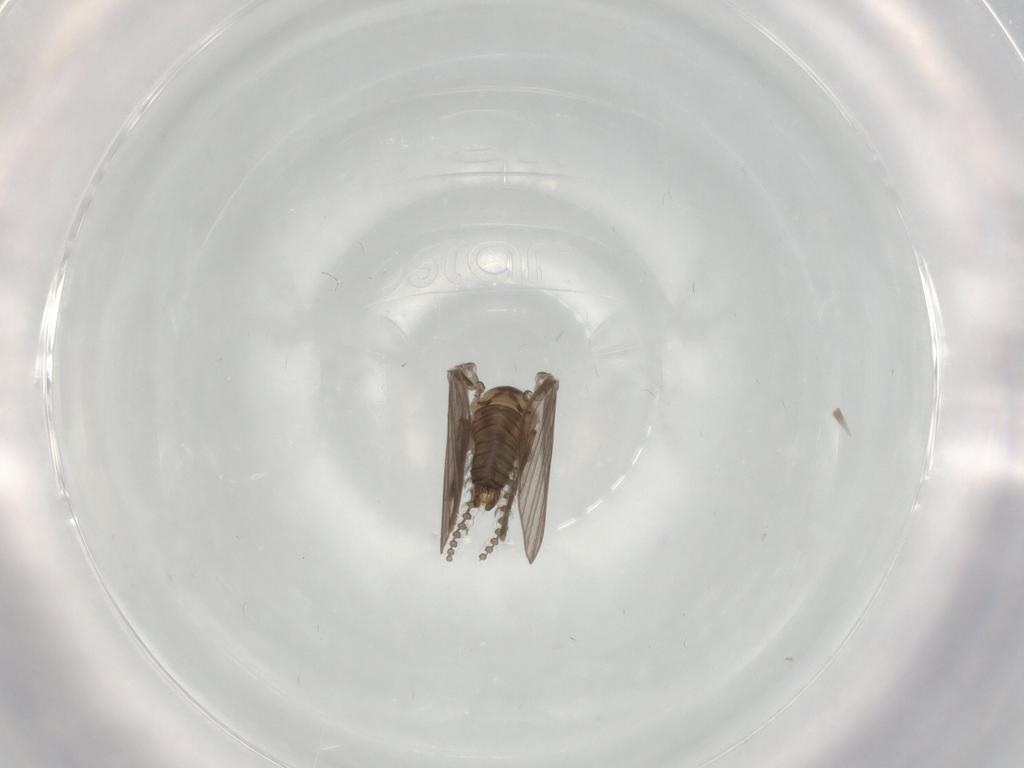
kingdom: Animalia
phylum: Arthropoda
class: Insecta
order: Diptera
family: Psychodidae
